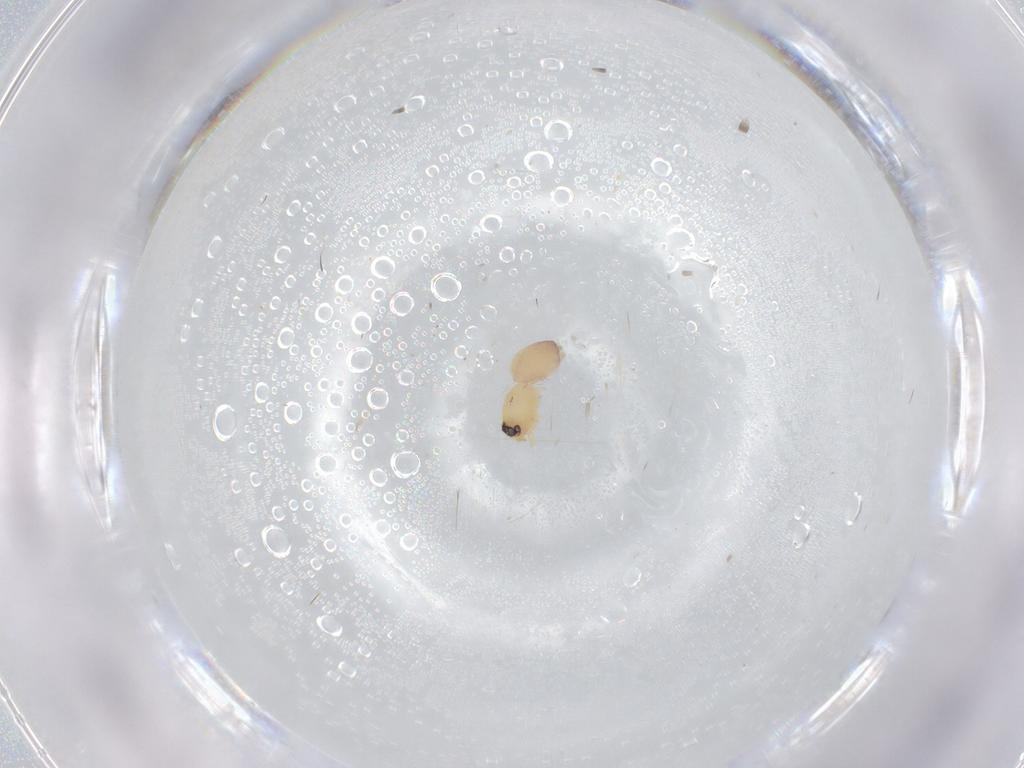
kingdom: Animalia
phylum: Arthropoda
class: Arachnida
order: Araneae
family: Dictynidae
